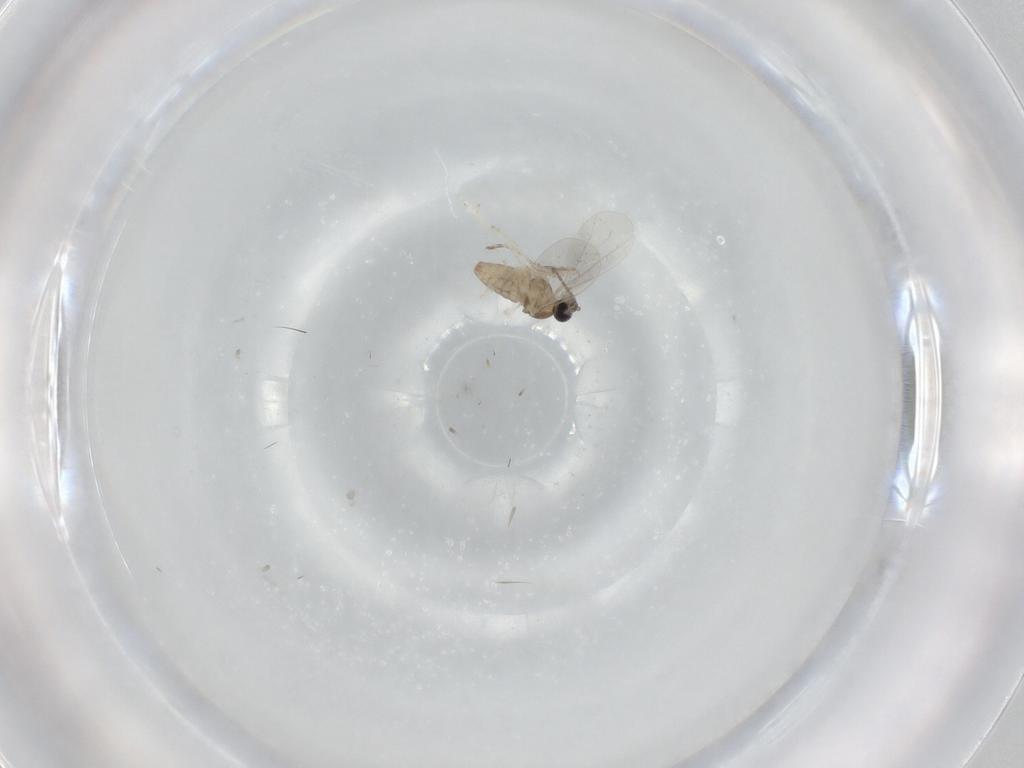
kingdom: Animalia
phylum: Arthropoda
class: Insecta
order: Diptera
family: Cecidomyiidae
